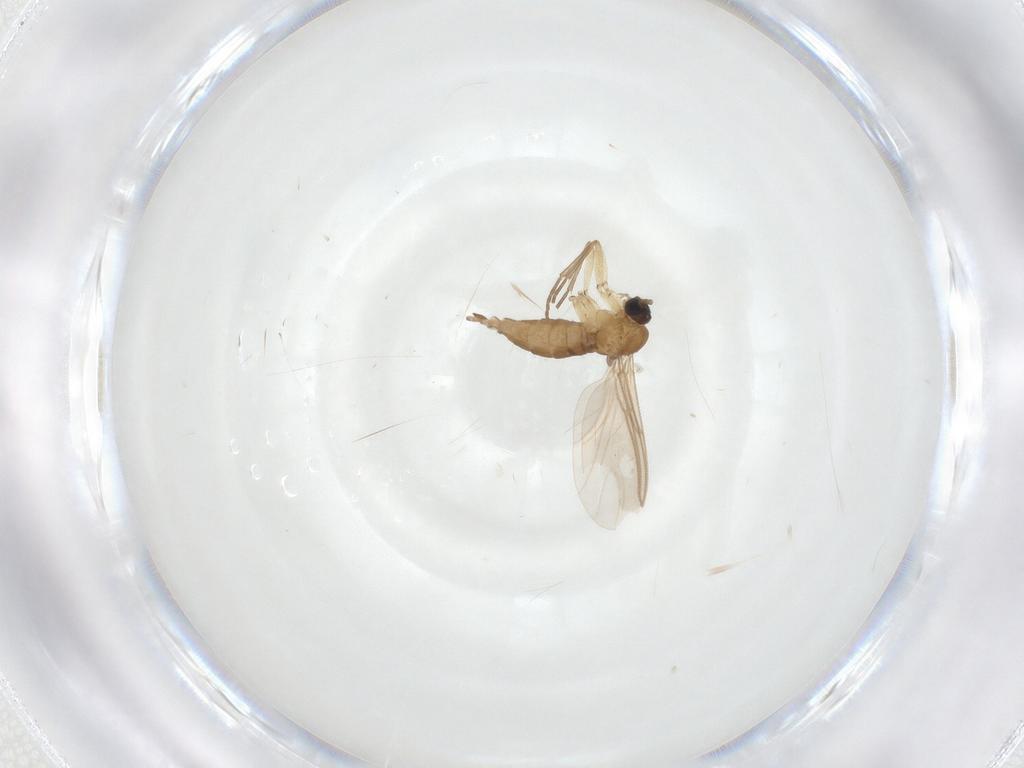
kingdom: Animalia
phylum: Arthropoda
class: Insecta
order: Diptera
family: Sciaridae
